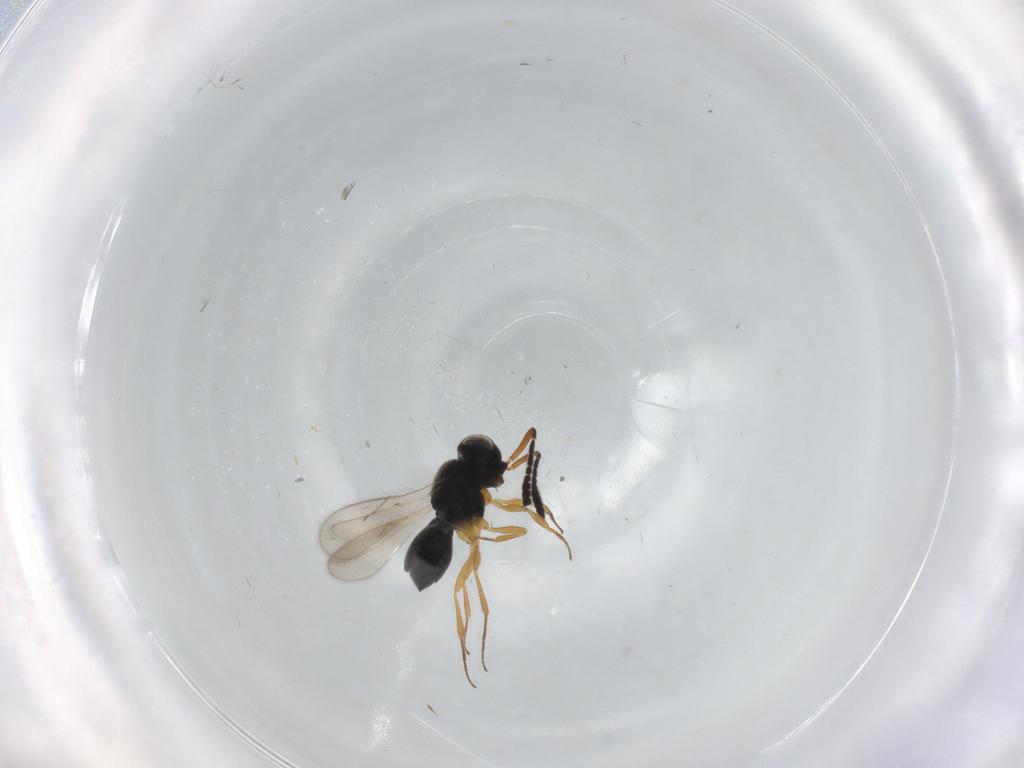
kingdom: Animalia
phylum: Arthropoda
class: Insecta
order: Hymenoptera
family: Scelionidae
